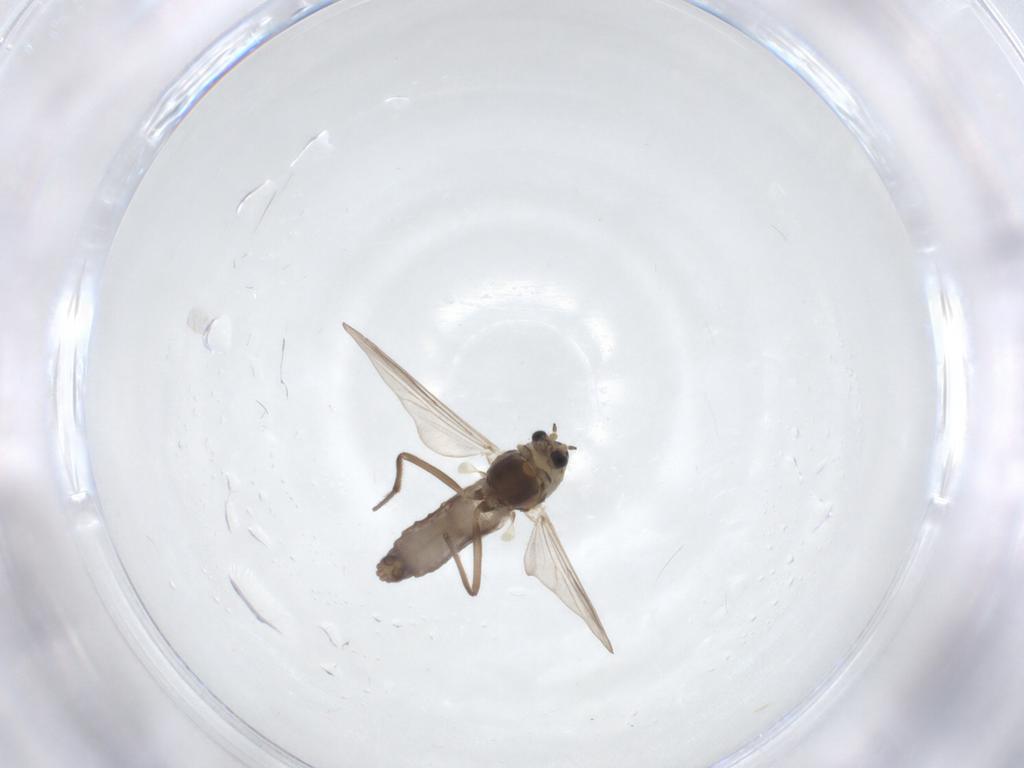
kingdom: Animalia
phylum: Arthropoda
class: Insecta
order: Diptera
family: Chironomidae
